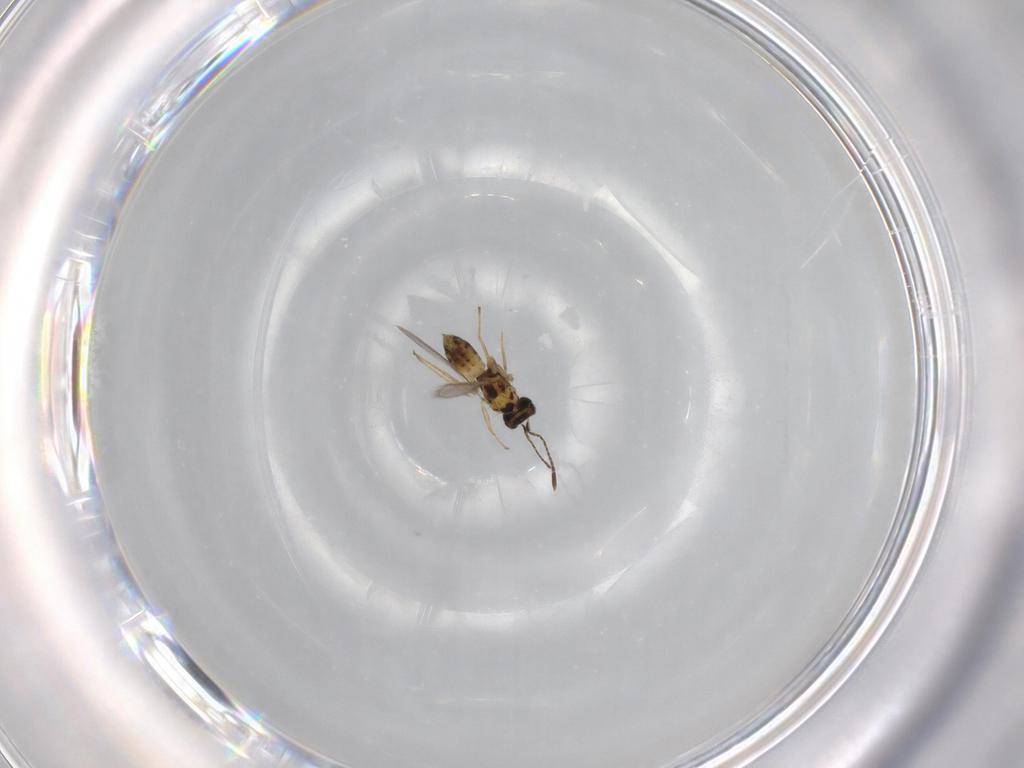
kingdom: Animalia
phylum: Arthropoda
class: Insecta
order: Hymenoptera
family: Mymaridae
